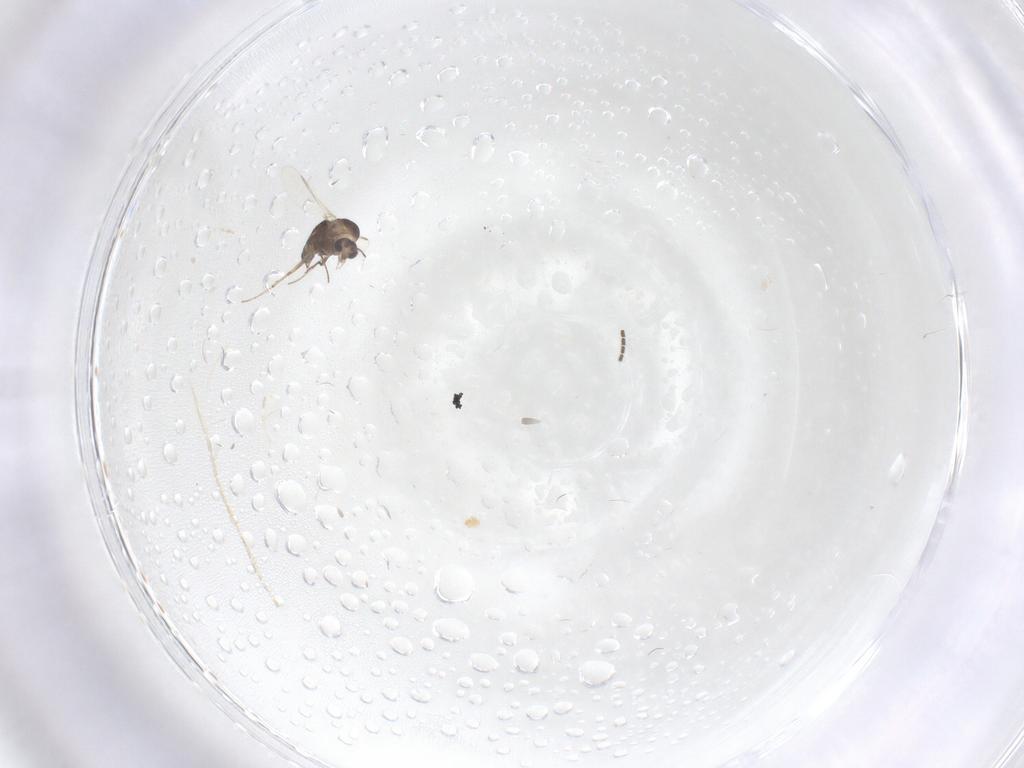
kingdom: Animalia
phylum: Arthropoda
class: Insecta
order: Diptera
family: Chironomidae
